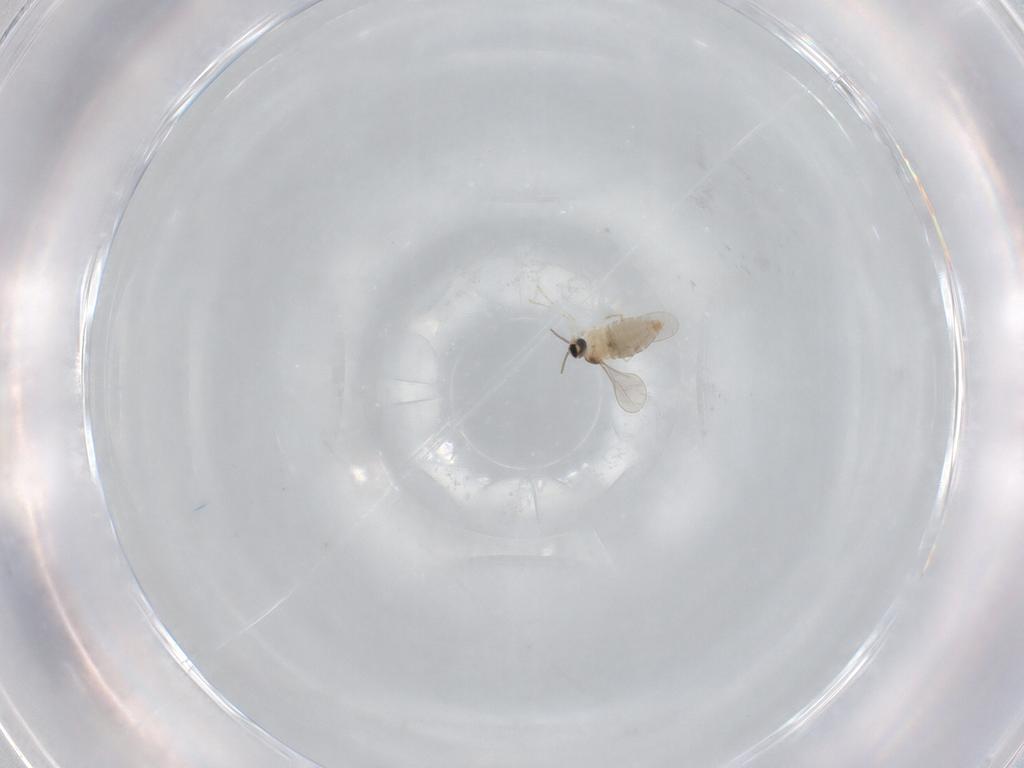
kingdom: Animalia
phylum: Arthropoda
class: Insecta
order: Diptera
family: Cecidomyiidae
